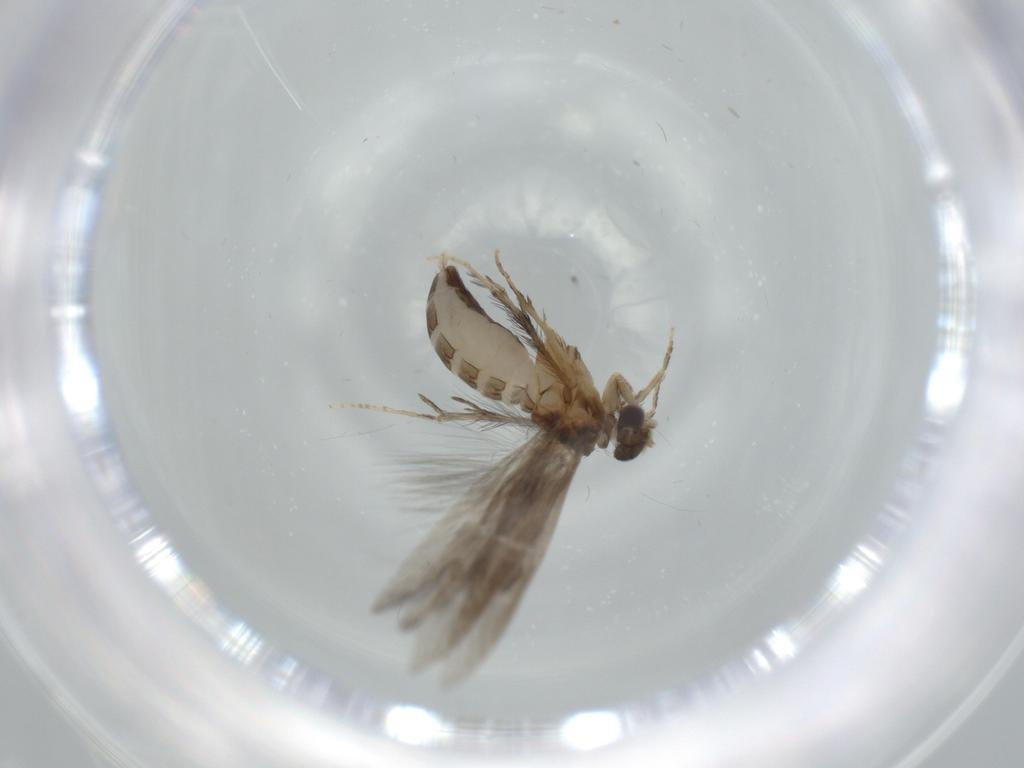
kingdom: Animalia
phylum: Arthropoda
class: Insecta
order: Trichoptera
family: Hydroptilidae
